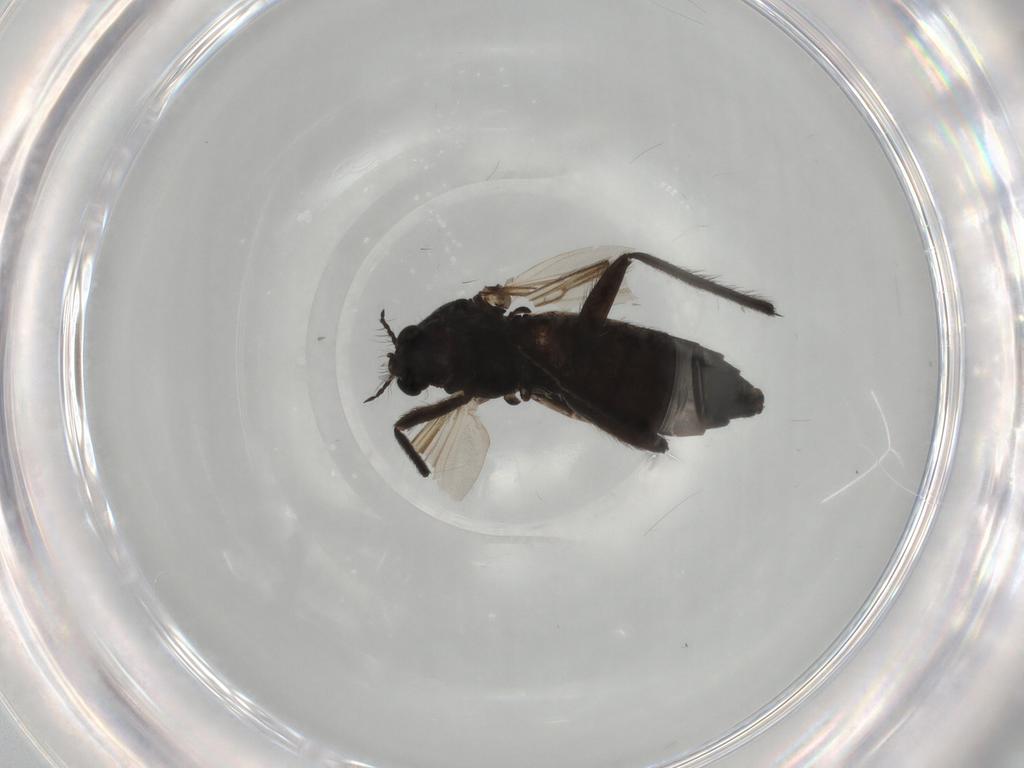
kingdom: Animalia
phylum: Arthropoda
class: Insecta
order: Diptera
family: Chironomidae
